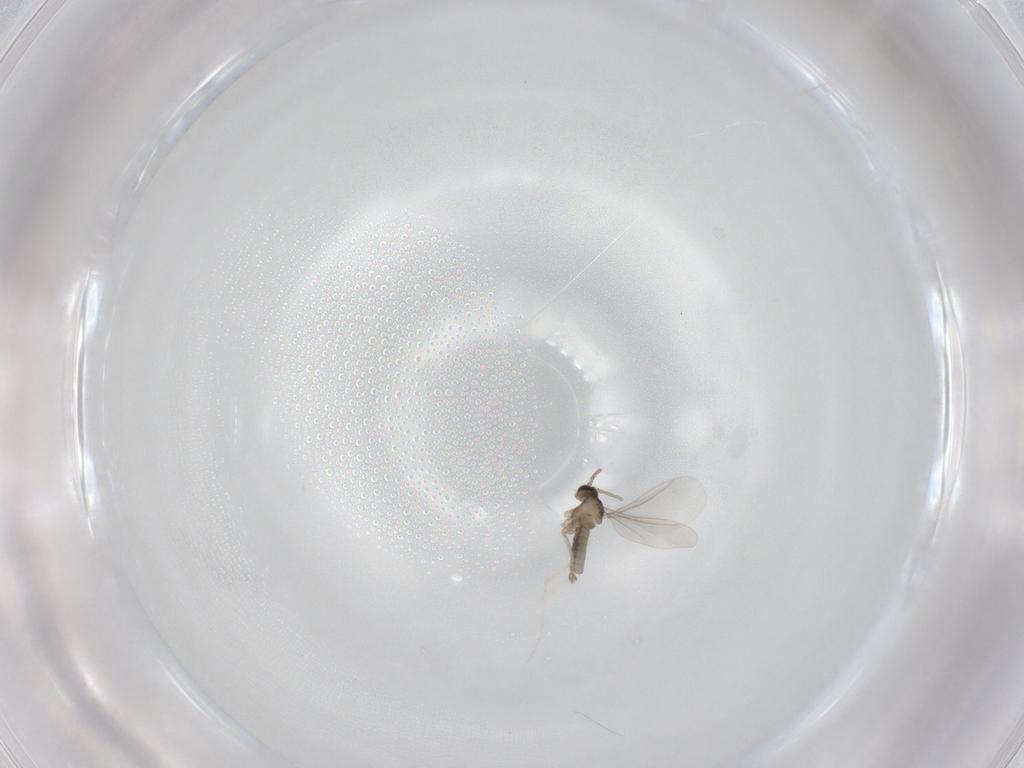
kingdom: Animalia
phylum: Arthropoda
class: Insecta
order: Diptera
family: Cecidomyiidae
